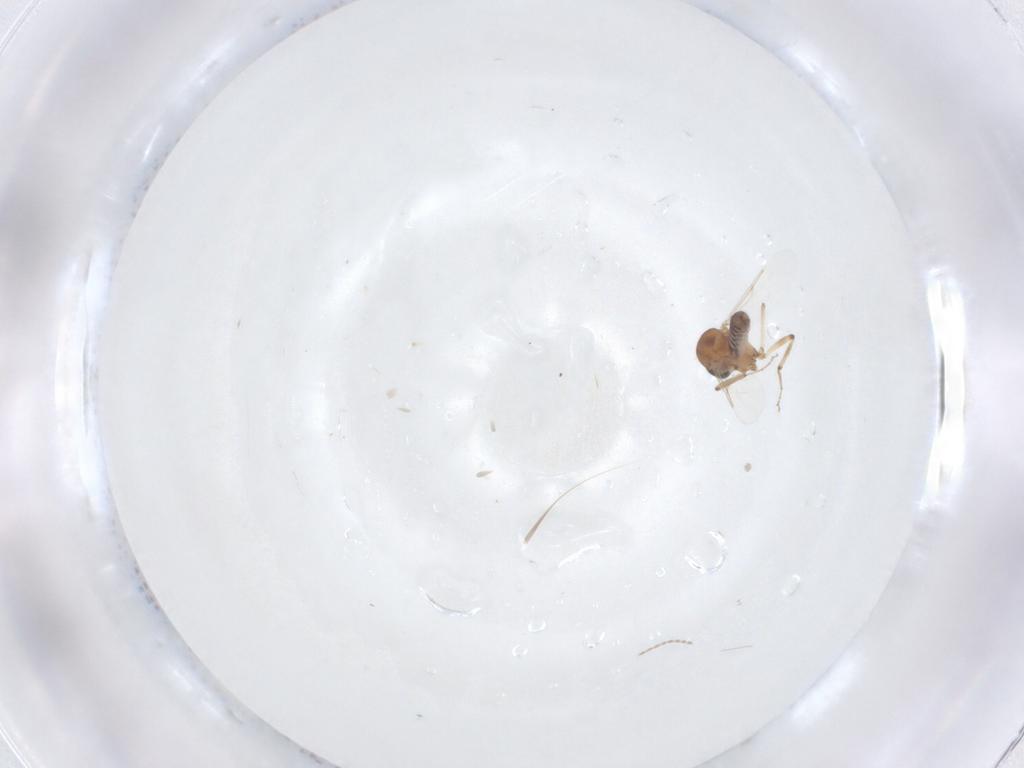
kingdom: Animalia
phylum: Arthropoda
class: Insecta
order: Diptera
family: Ceratopogonidae
